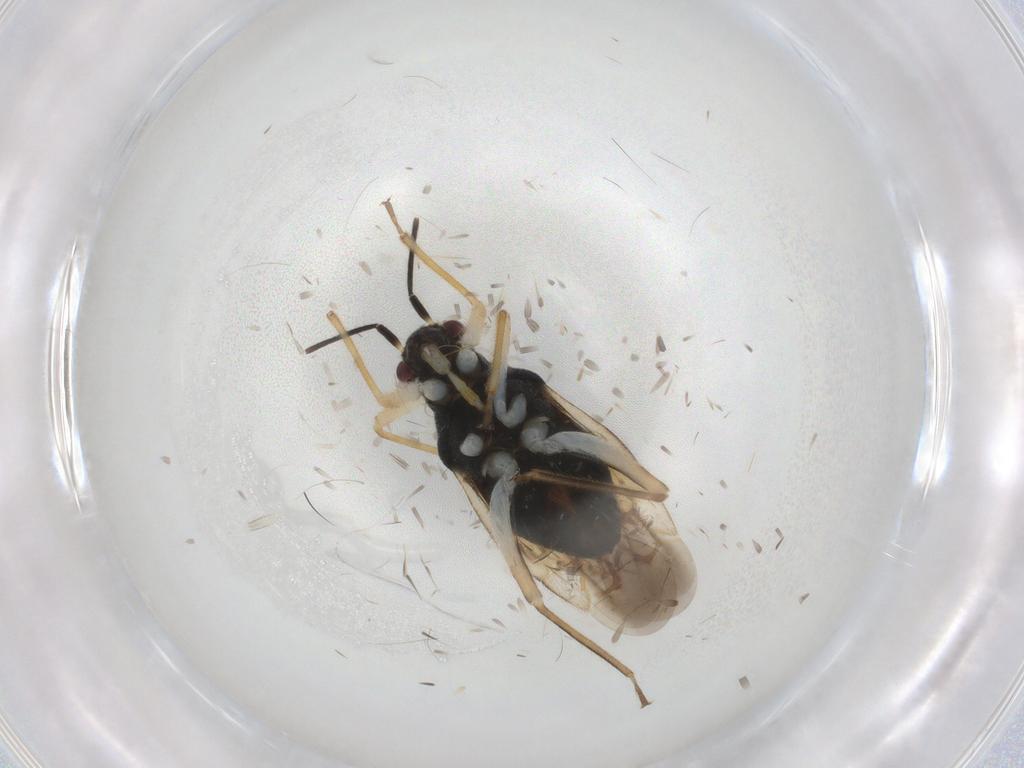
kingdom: Animalia
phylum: Arthropoda
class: Insecta
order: Hemiptera
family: Miridae
